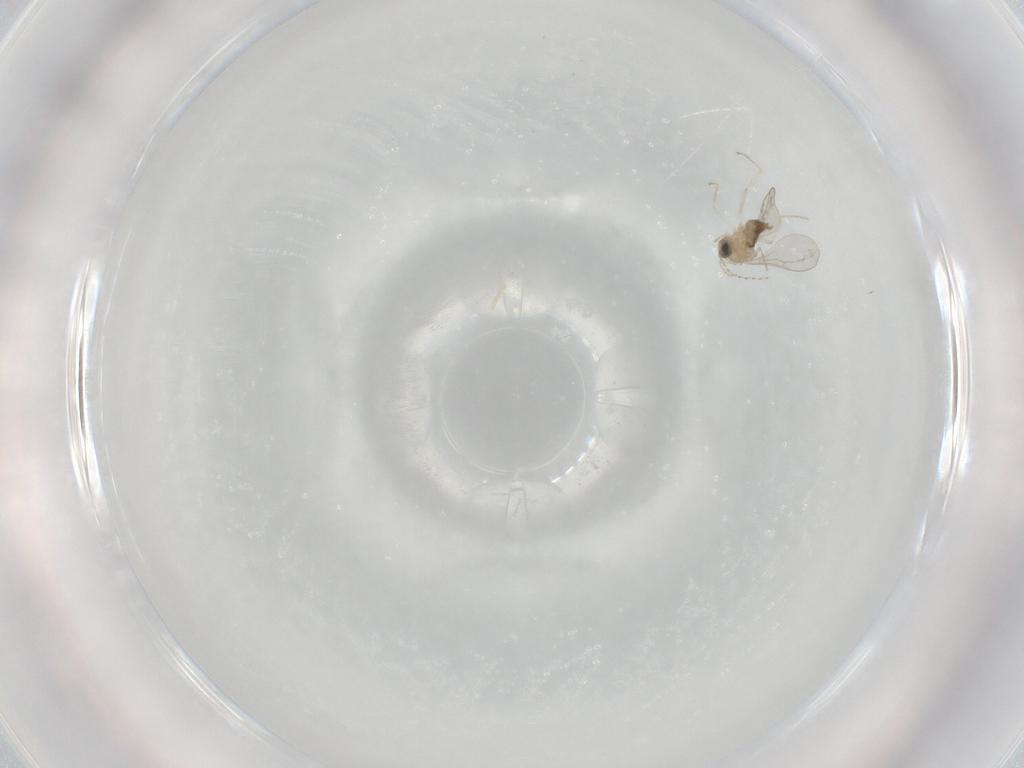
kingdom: Animalia
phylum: Arthropoda
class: Insecta
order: Diptera
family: Cecidomyiidae
